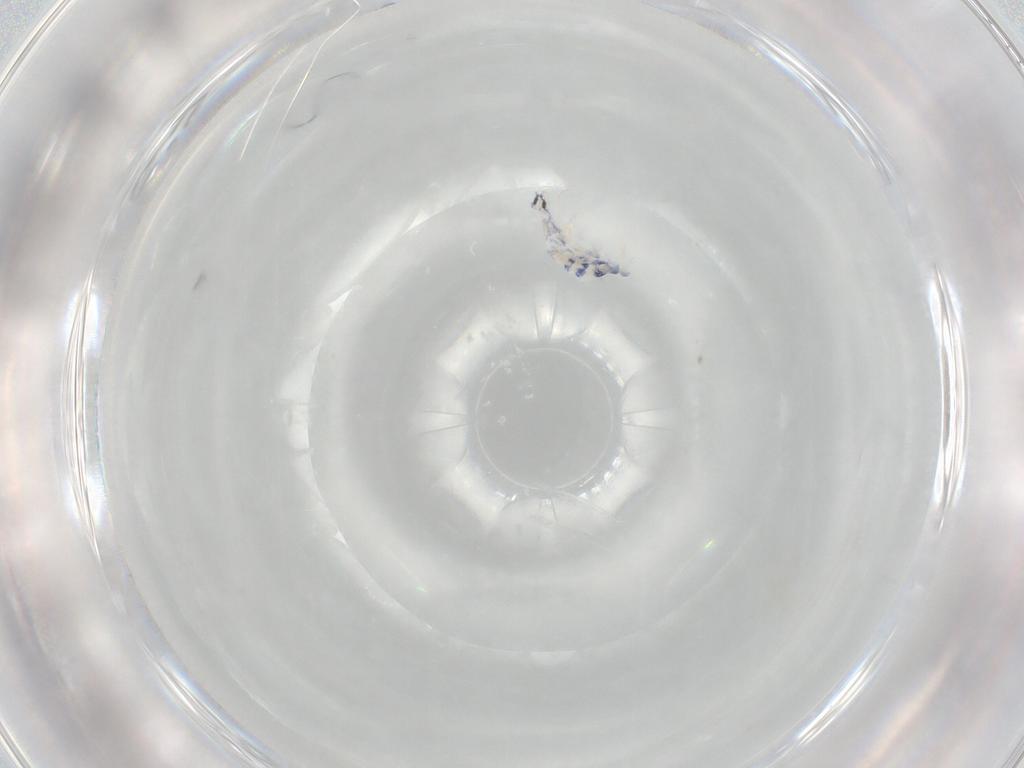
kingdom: Animalia
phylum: Arthropoda
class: Collembola
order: Entomobryomorpha
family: Entomobryidae
